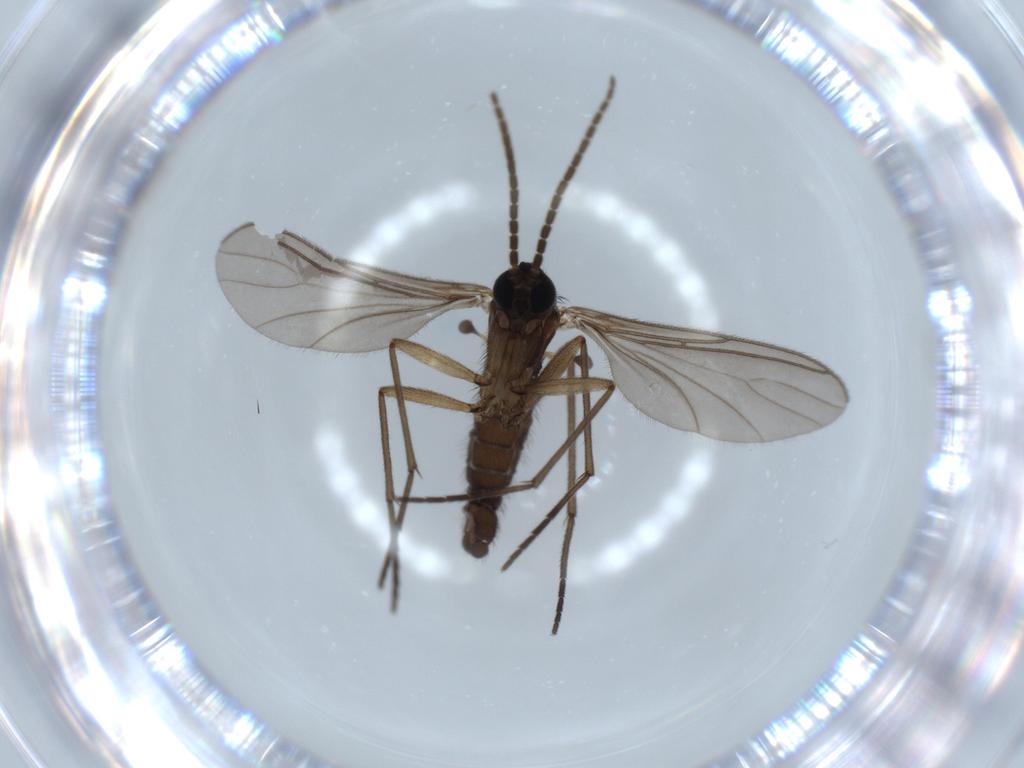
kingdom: Animalia
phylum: Arthropoda
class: Insecta
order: Diptera
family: Sciaridae
